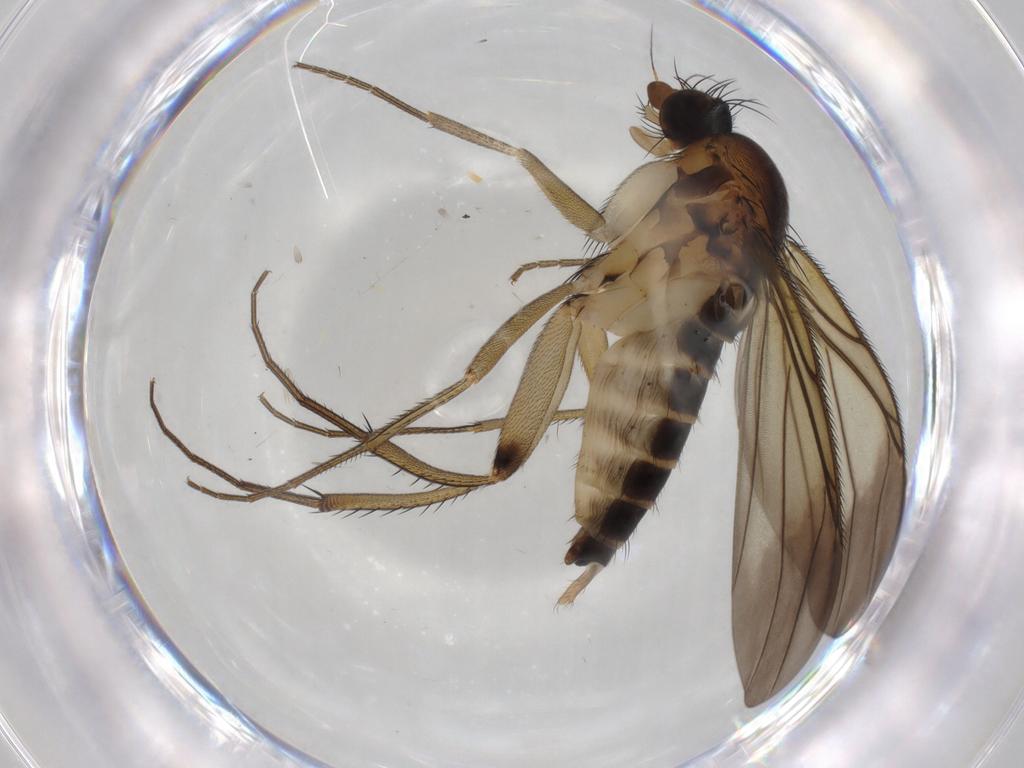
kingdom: Animalia
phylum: Arthropoda
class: Insecta
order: Diptera
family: Phoridae
